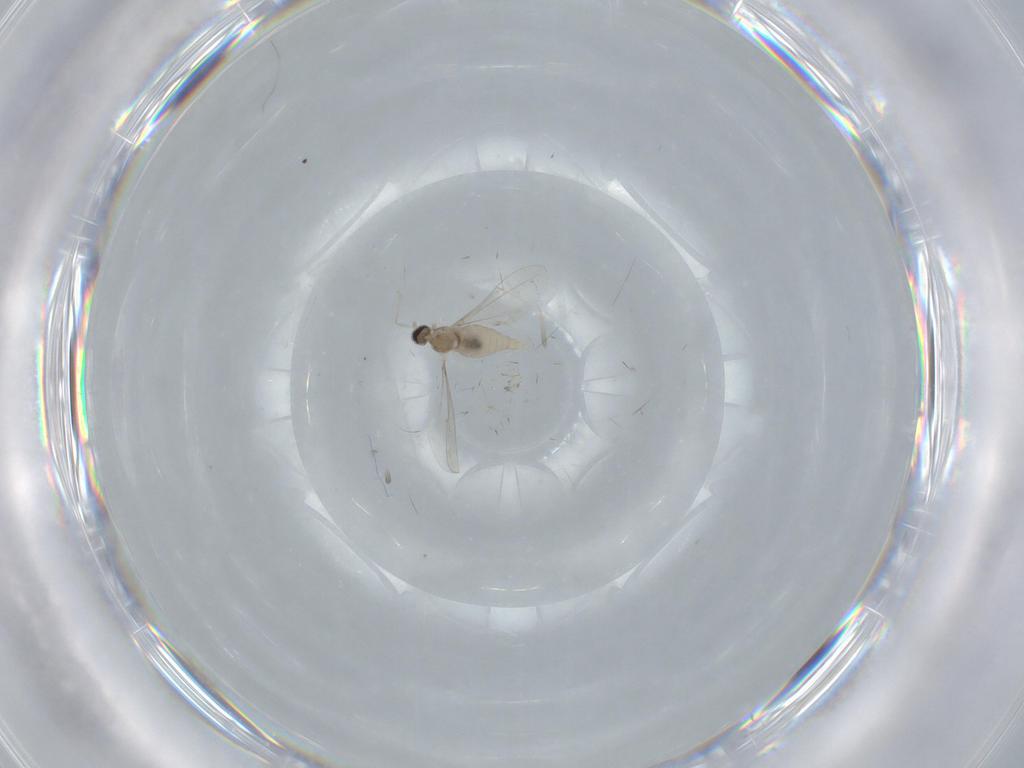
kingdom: Animalia
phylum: Arthropoda
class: Insecta
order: Diptera
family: Cecidomyiidae
